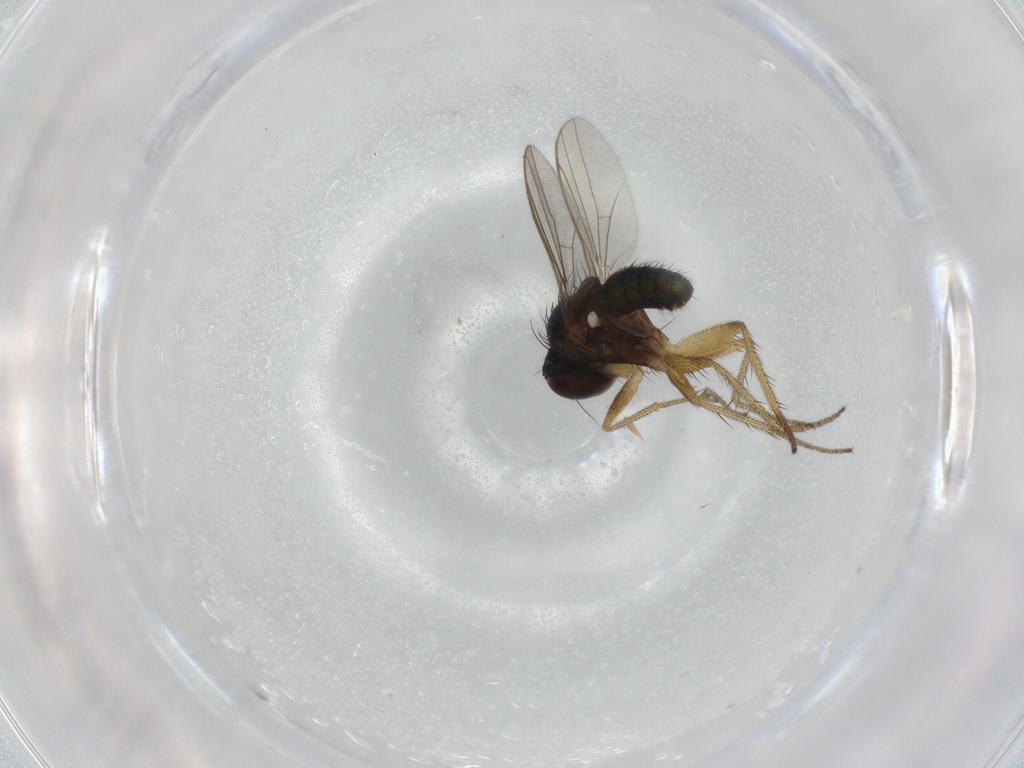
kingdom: Animalia
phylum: Arthropoda
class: Insecta
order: Diptera
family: Dolichopodidae
